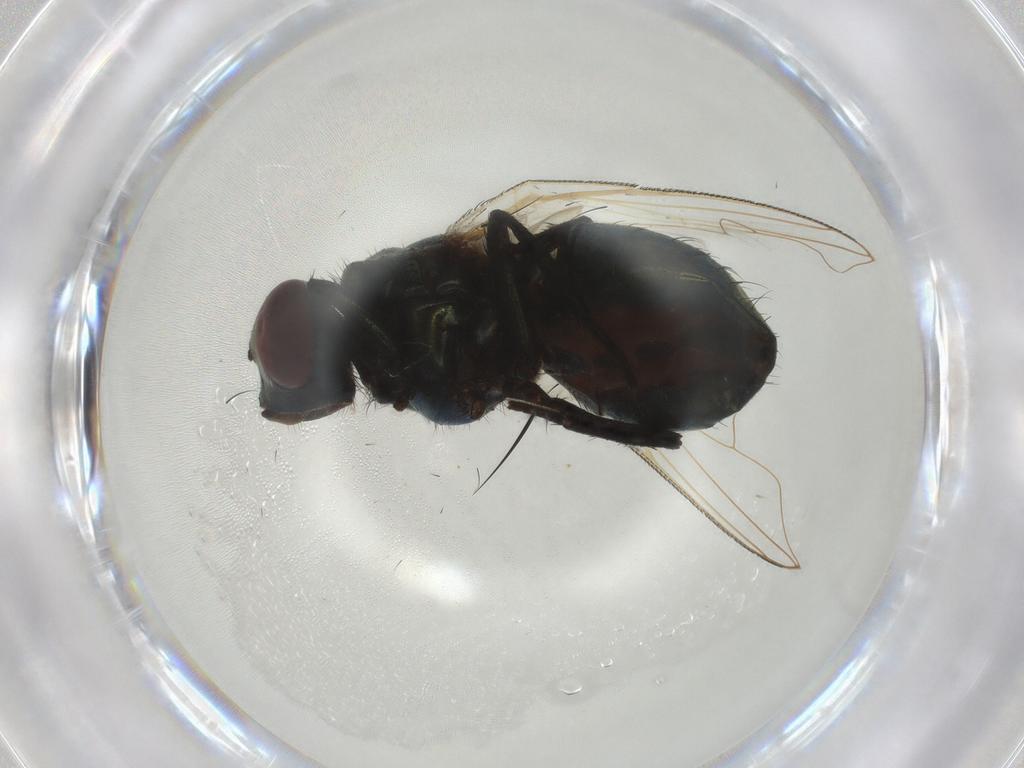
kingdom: Animalia
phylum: Arthropoda
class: Insecta
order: Diptera
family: Muscidae
